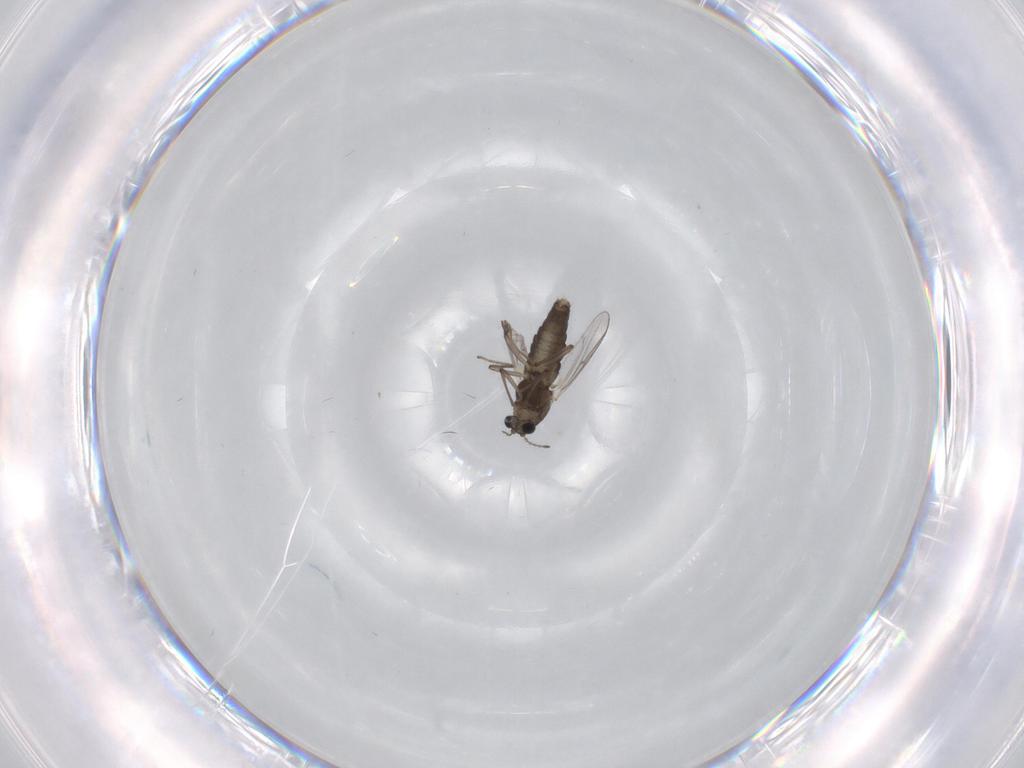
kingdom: Animalia
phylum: Arthropoda
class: Insecta
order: Diptera
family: Chironomidae
